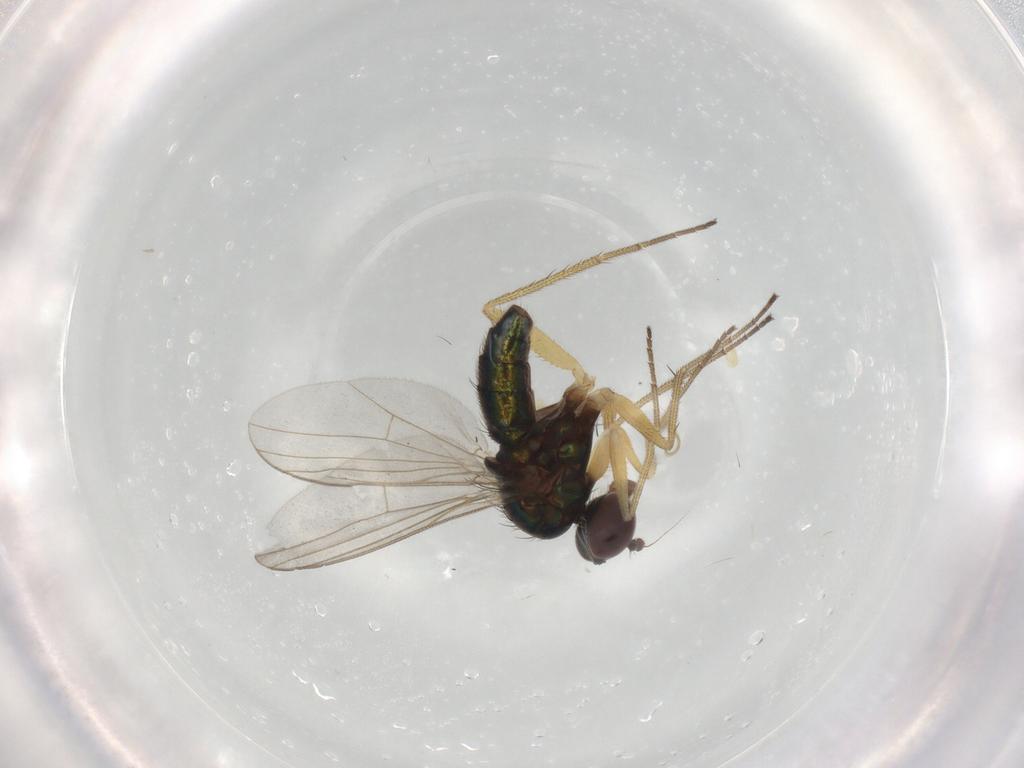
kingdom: Animalia
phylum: Arthropoda
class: Insecta
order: Diptera
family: Dolichopodidae
